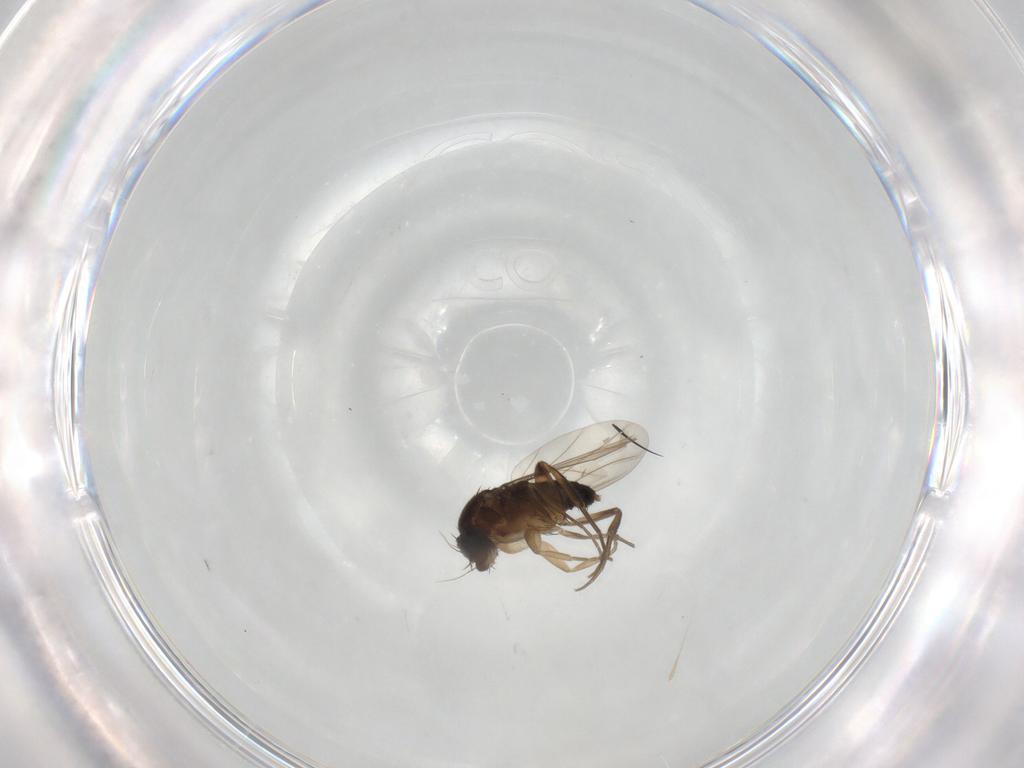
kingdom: Animalia
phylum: Arthropoda
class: Insecta
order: Diptera
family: Phoridae
